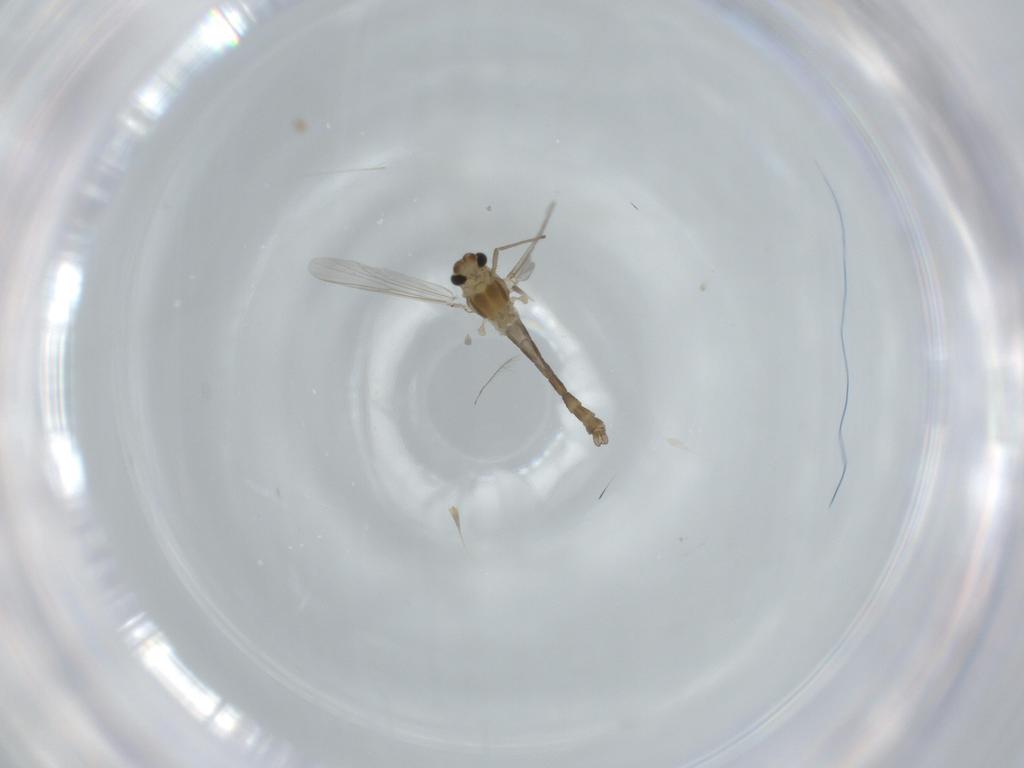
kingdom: Animalia
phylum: Arthropoda
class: Insecta
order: Diptera
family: Chironomidae
